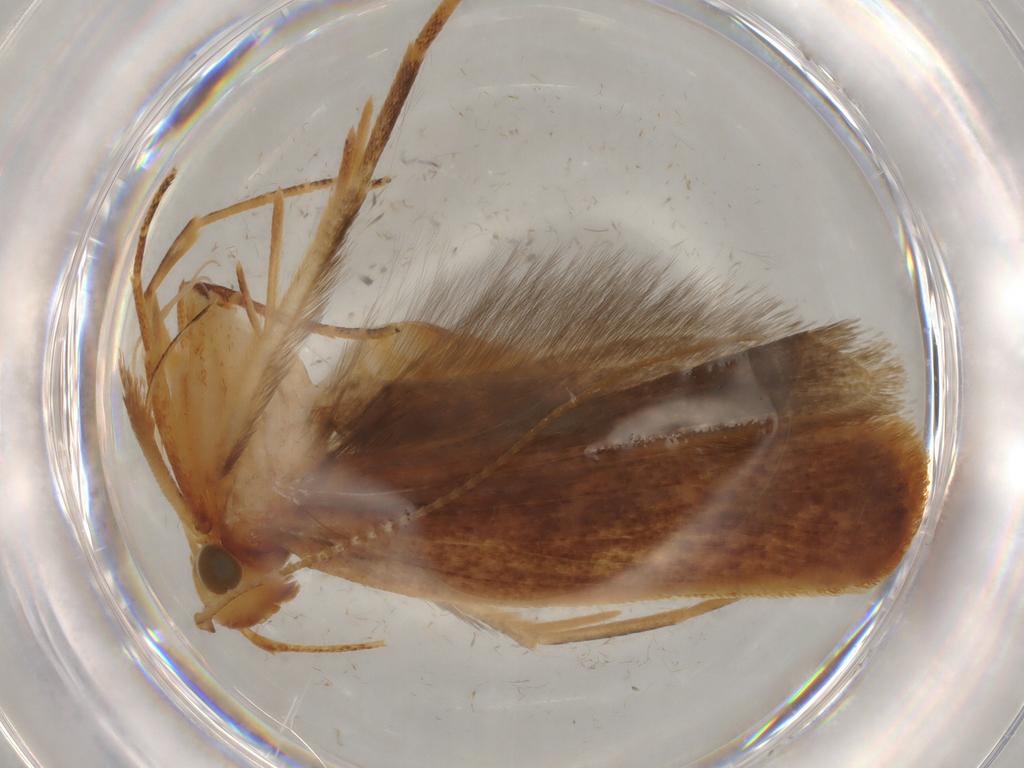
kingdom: Animalia
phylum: Arthropoda
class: Insecta
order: Lepidoptera
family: Gelechiidae
